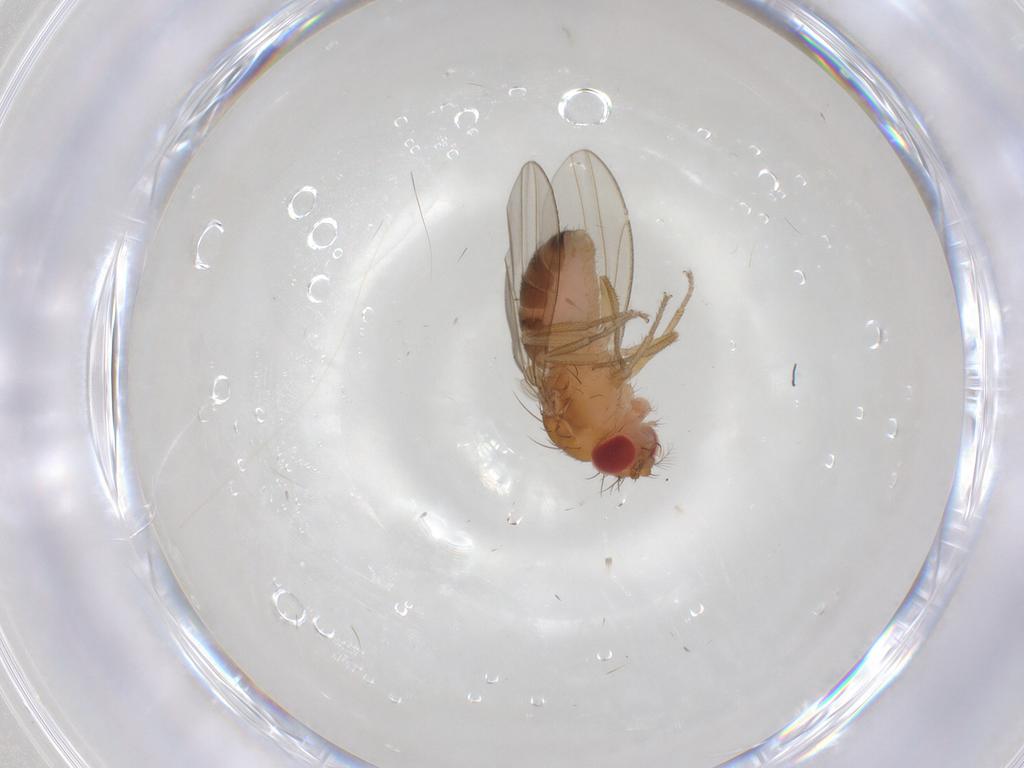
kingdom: Animalia
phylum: Arthropoda
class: Insecta
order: Diptera
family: Drosophilidae
